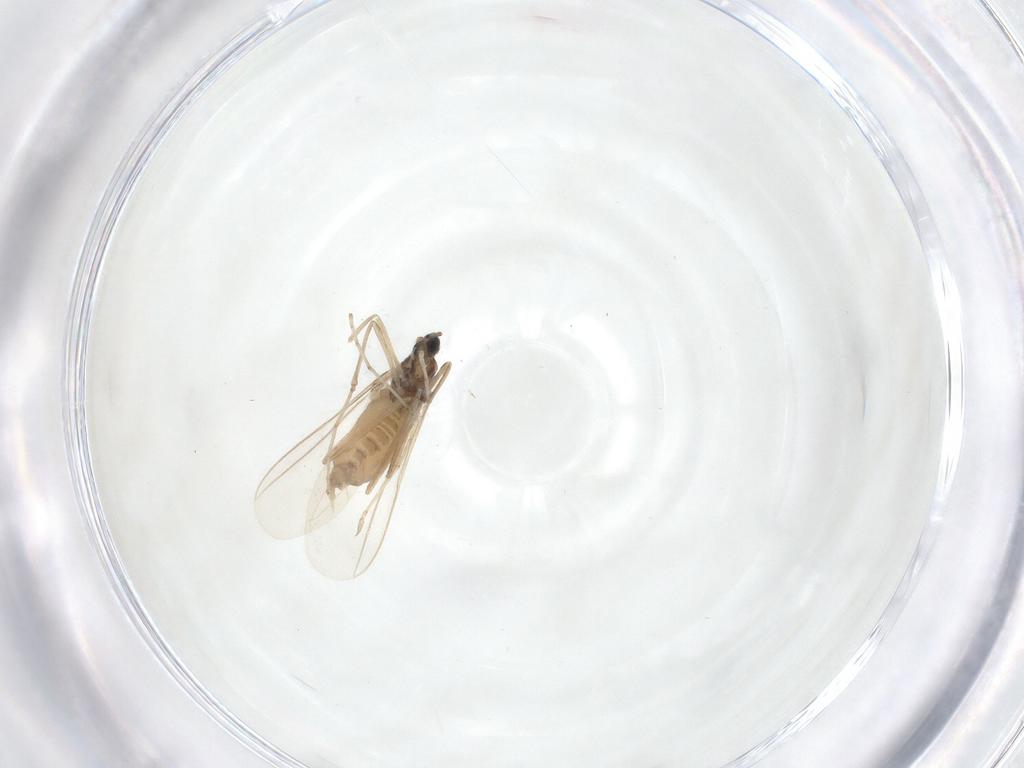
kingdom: Animalia
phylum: Arthropoda
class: Insecta
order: Diptera
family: Cecidomyiidae
